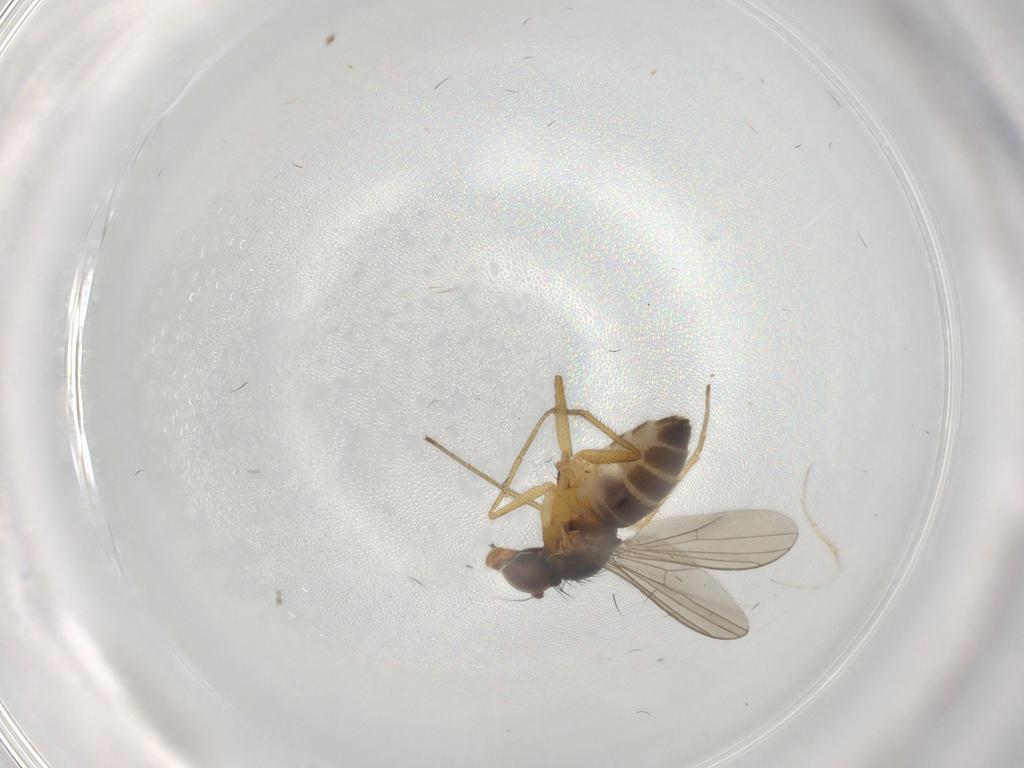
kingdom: Animalia
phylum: Arthropoda
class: Insecta
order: Diptera
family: Dolichopodidae
